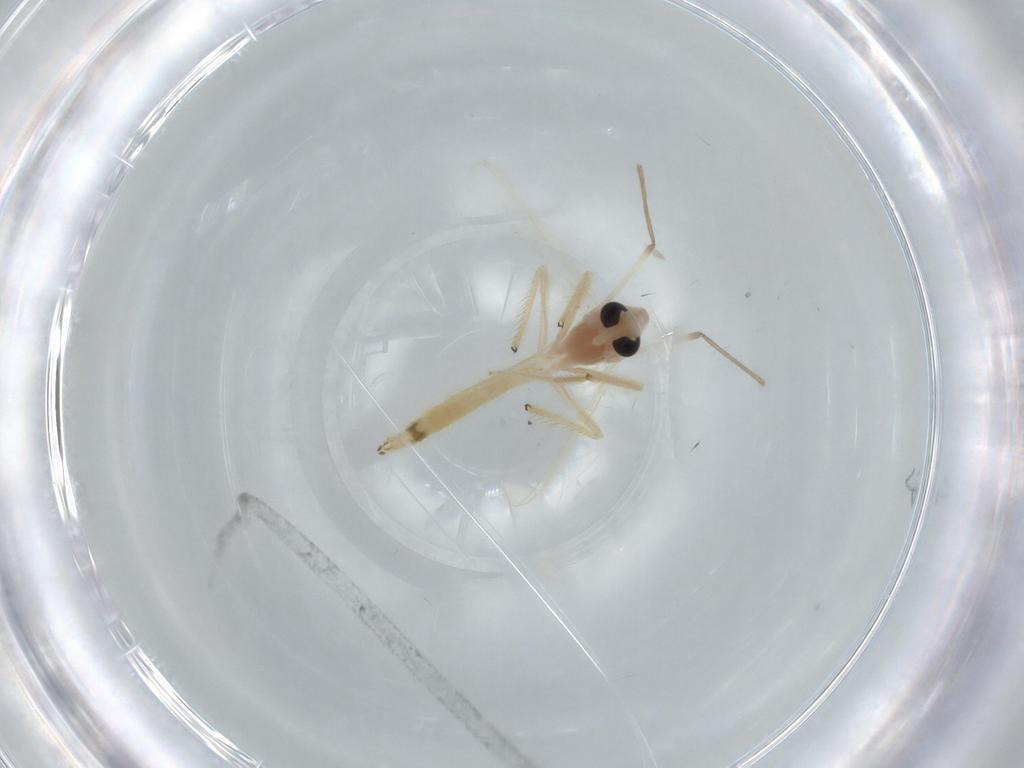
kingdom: Animalia
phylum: Arthropoda
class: Insecta
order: Diptera
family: Chironomidae
